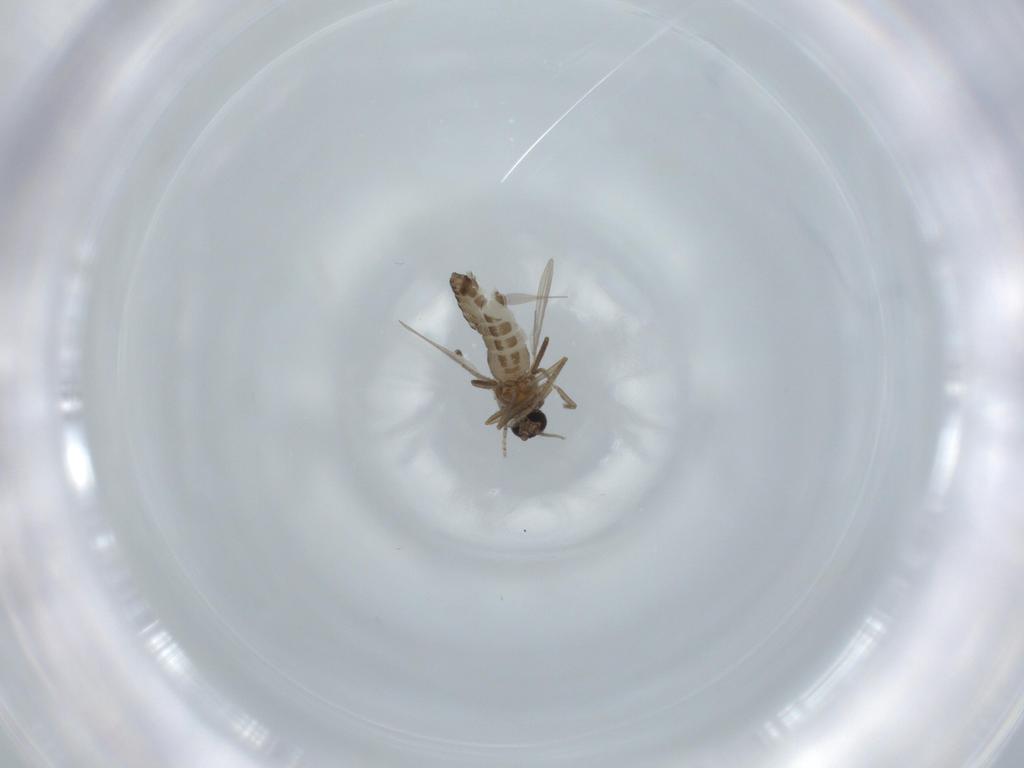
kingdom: Animalia
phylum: Arthropoda
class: Insecta
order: Diptera
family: Ceratopogonidae
